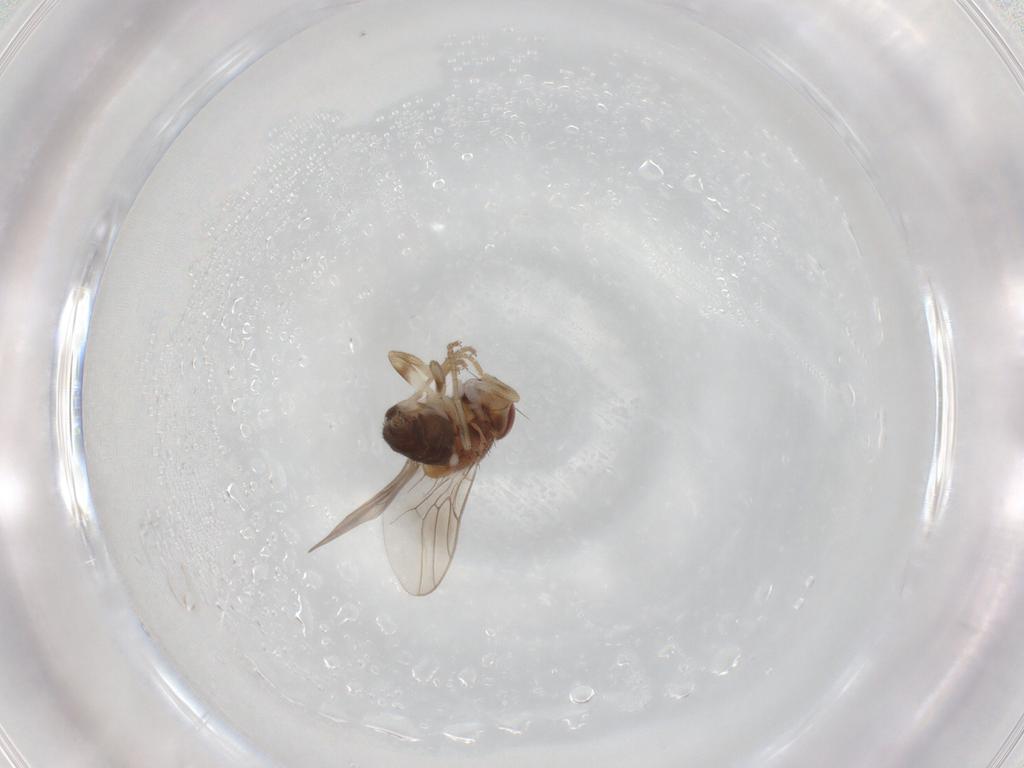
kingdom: Animalia
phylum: Arthropoda
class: Insecta
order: Diptera
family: Chloropidae
